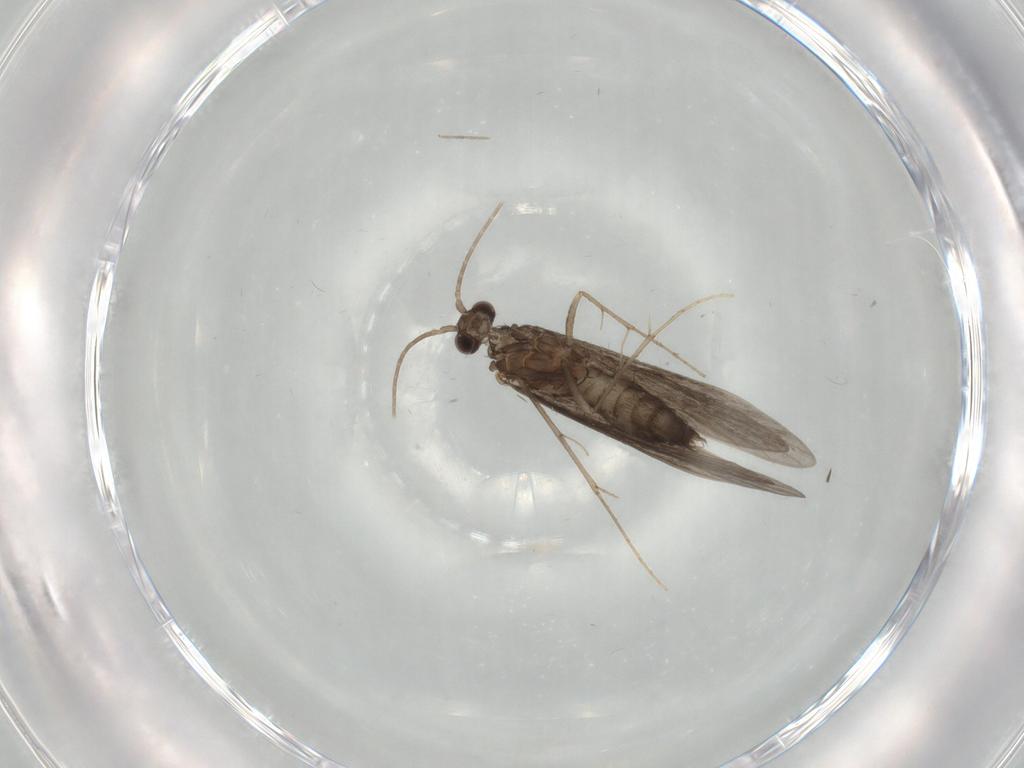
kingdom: Animalia
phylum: Arthropoda
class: Insecta
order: Trichoptera
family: Xiphocentronidae
